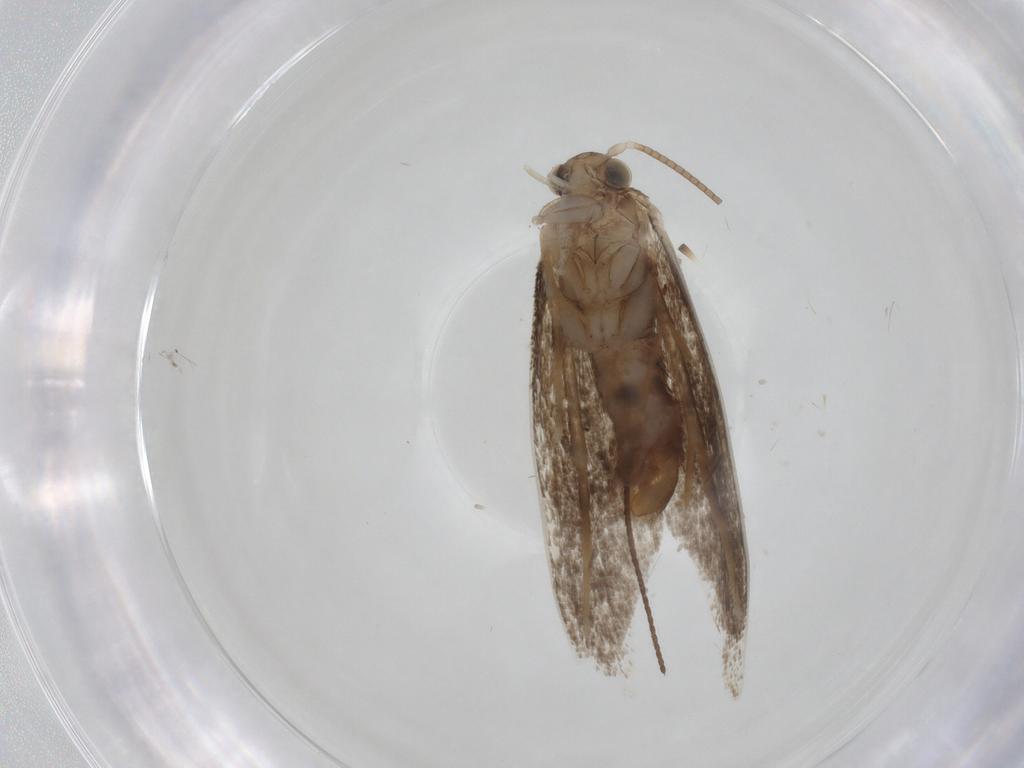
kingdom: Animalia
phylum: Arthropoda
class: Insecta
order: Lepidoptera
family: Dryadaulidae
